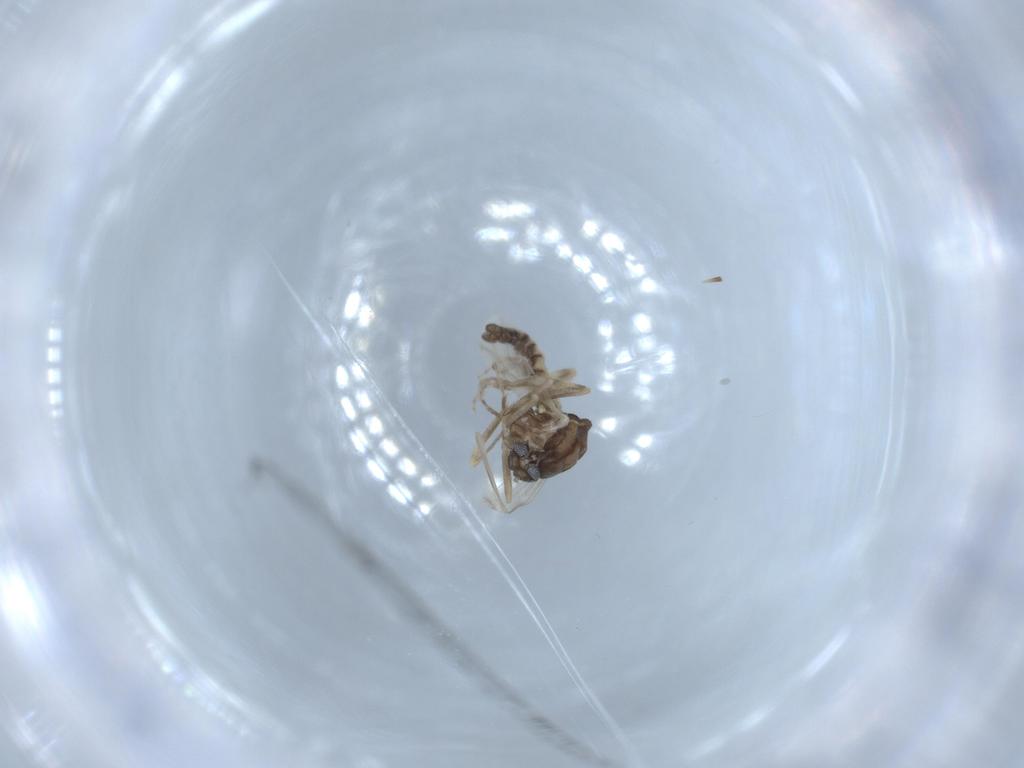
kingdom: Animalia
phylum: Arthropoda
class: Insecta
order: Diptera
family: Ceratopogonidae
